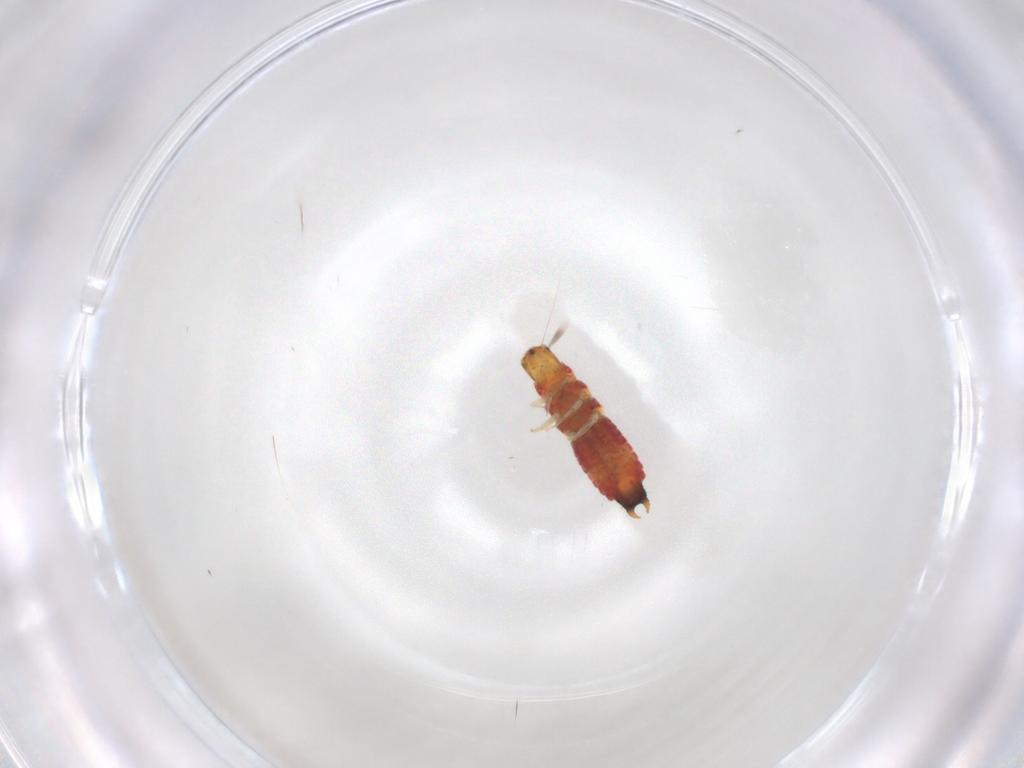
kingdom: Animalia
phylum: Arthropoda
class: Insecta
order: Coleoptera
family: Melyridae
